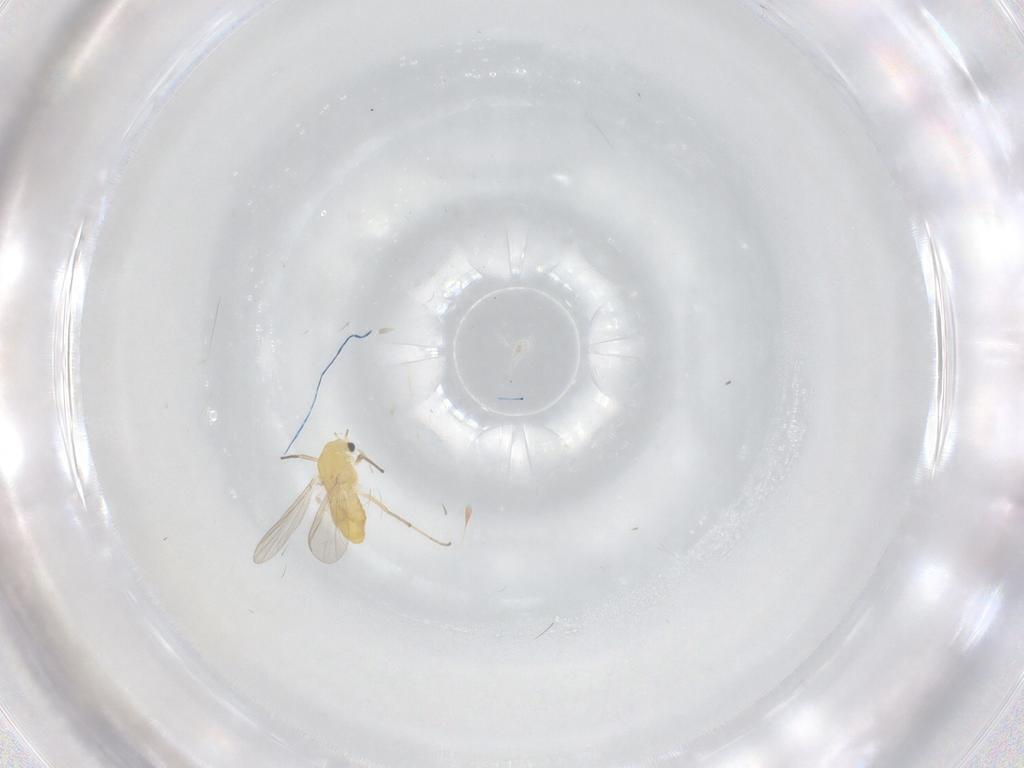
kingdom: Animalia
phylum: Arthropoda
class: Insecta
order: Diptera
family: Chironomidae
